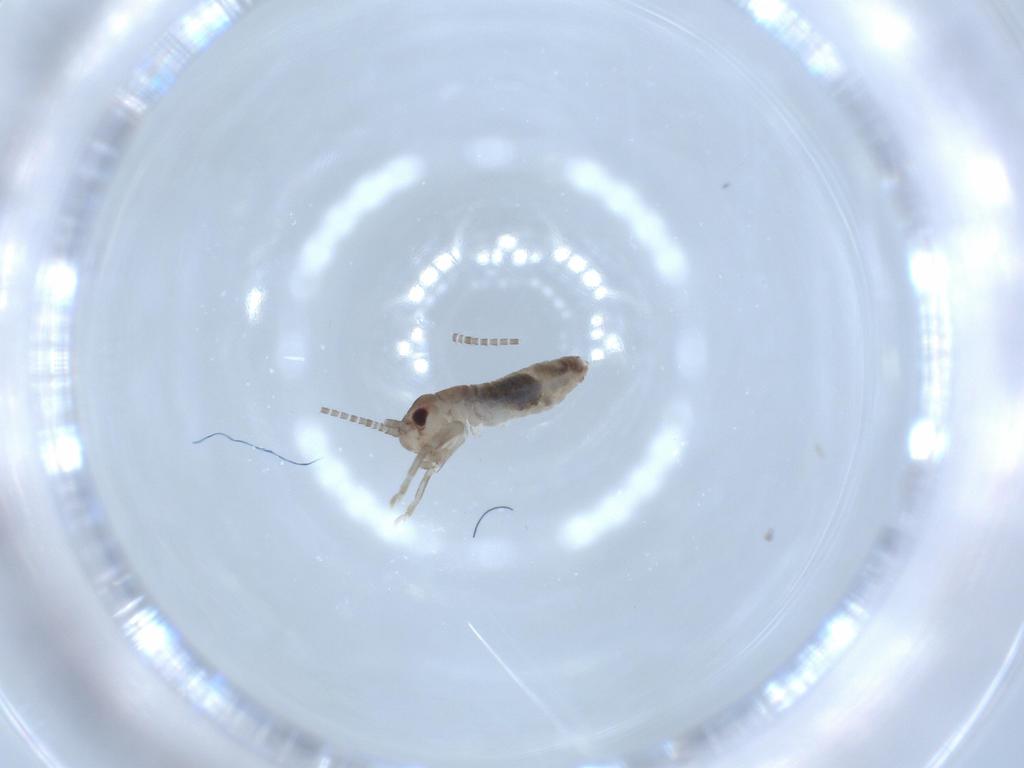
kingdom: Animalia
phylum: Arthropoda
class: Insecta
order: Orthoptera
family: Gryllidae
